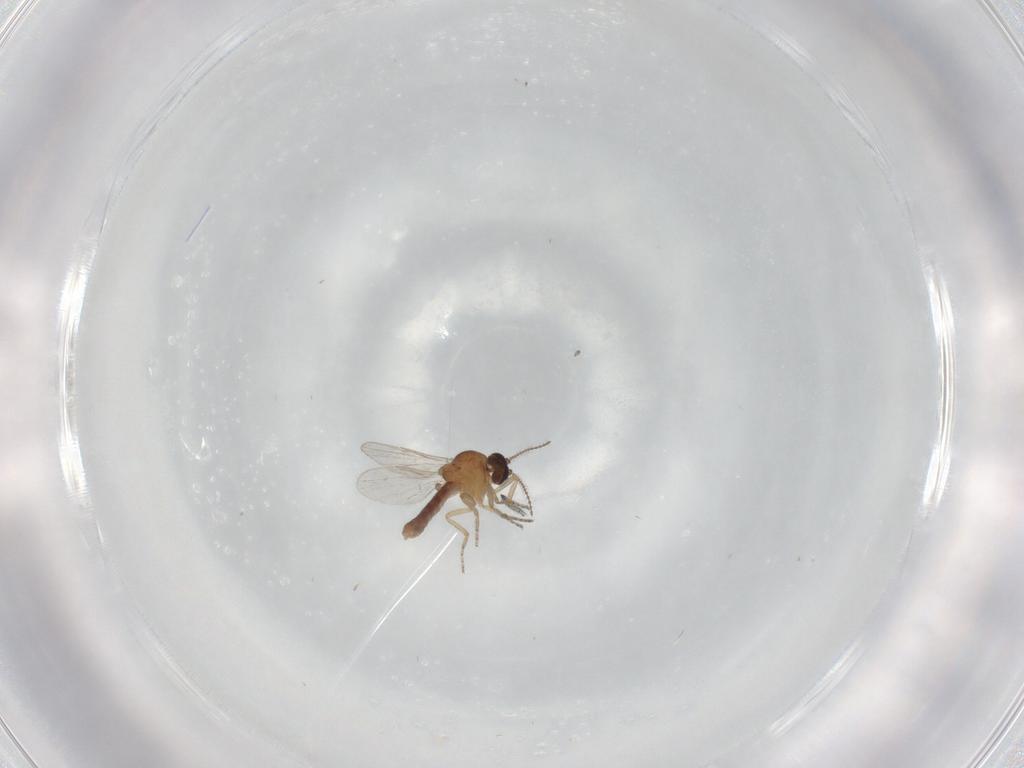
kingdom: Animalia
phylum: Arthropoda
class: Insecta
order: Diptera
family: Ceratopogonidae
